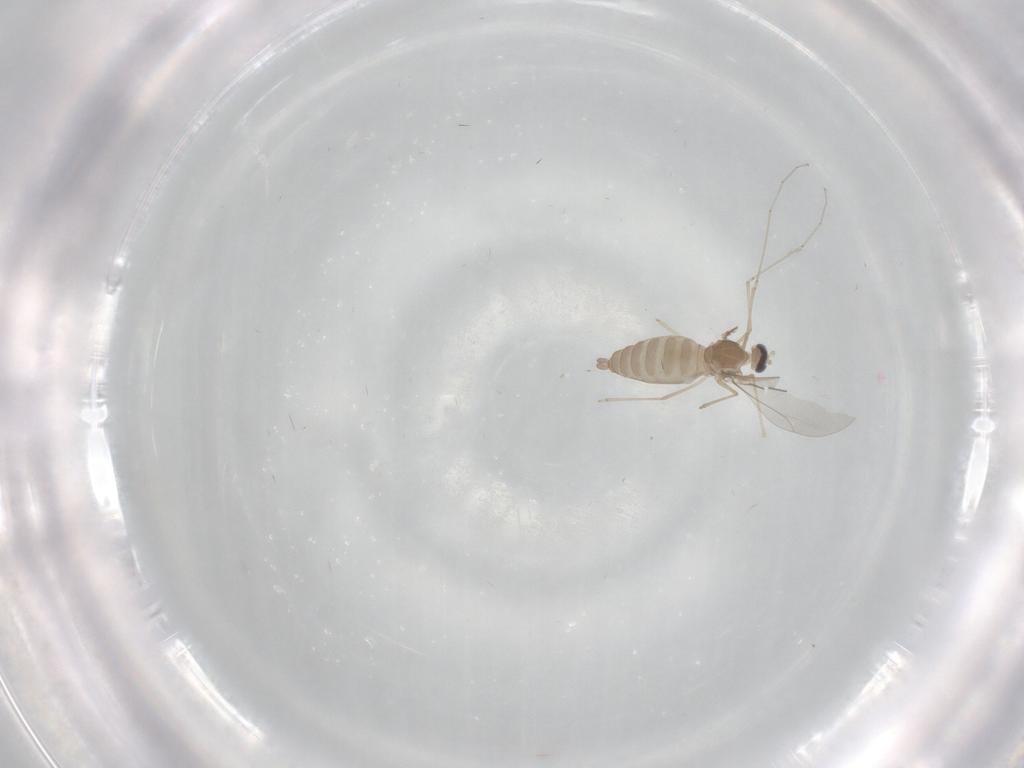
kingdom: Animalia
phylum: Arthropoda
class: Insecta
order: Diptera
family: Cecidomyiidae
